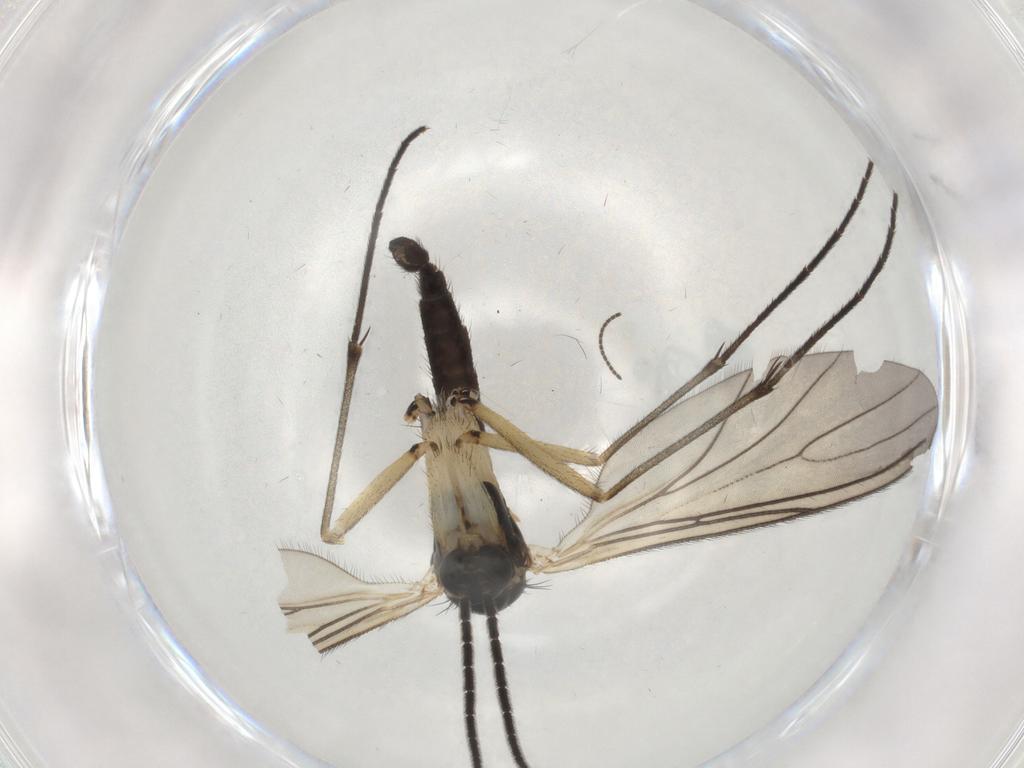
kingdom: Animalia
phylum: Arthropoda
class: Insecta
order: Diptera
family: Sciaridae
